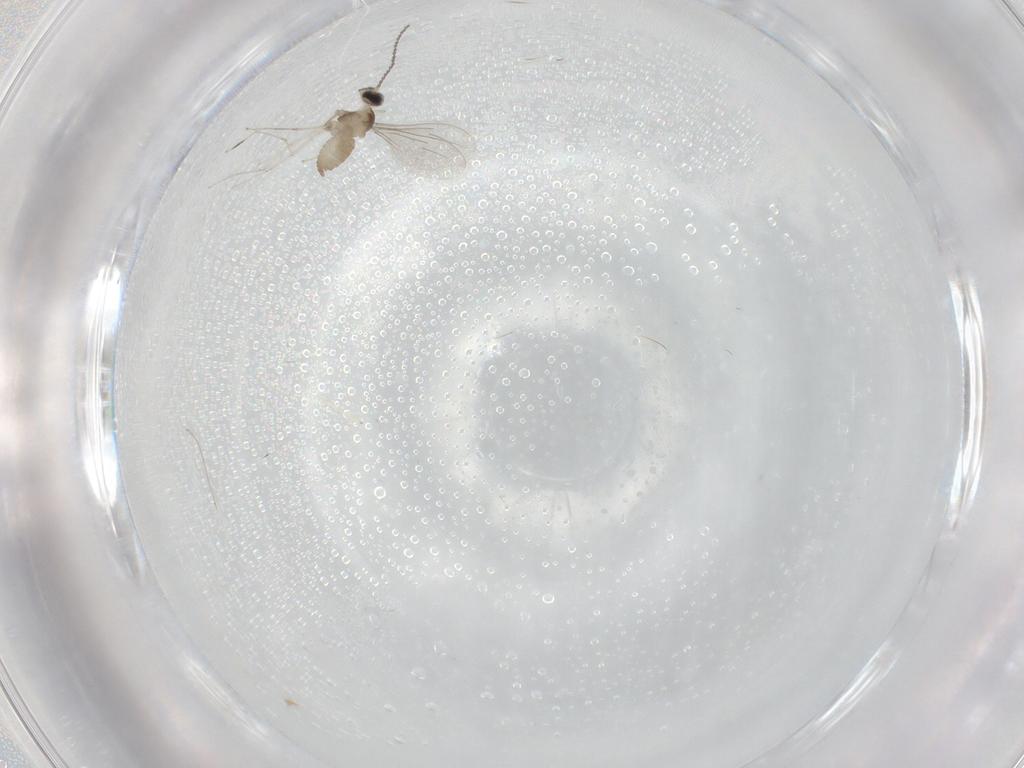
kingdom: Animalia
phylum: Arthropoda
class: Insecta
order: Diptera
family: Cecidomyiidae
